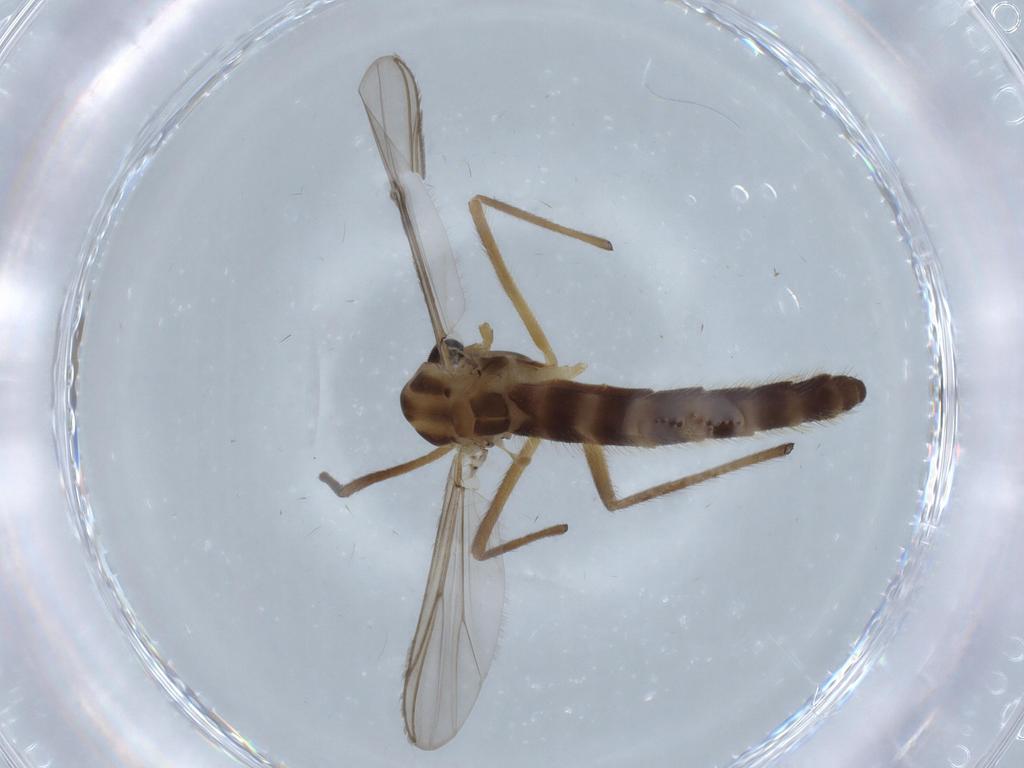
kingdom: Animalia
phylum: Arthropoda
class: Insecta
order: Diptera
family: Chironomidae
